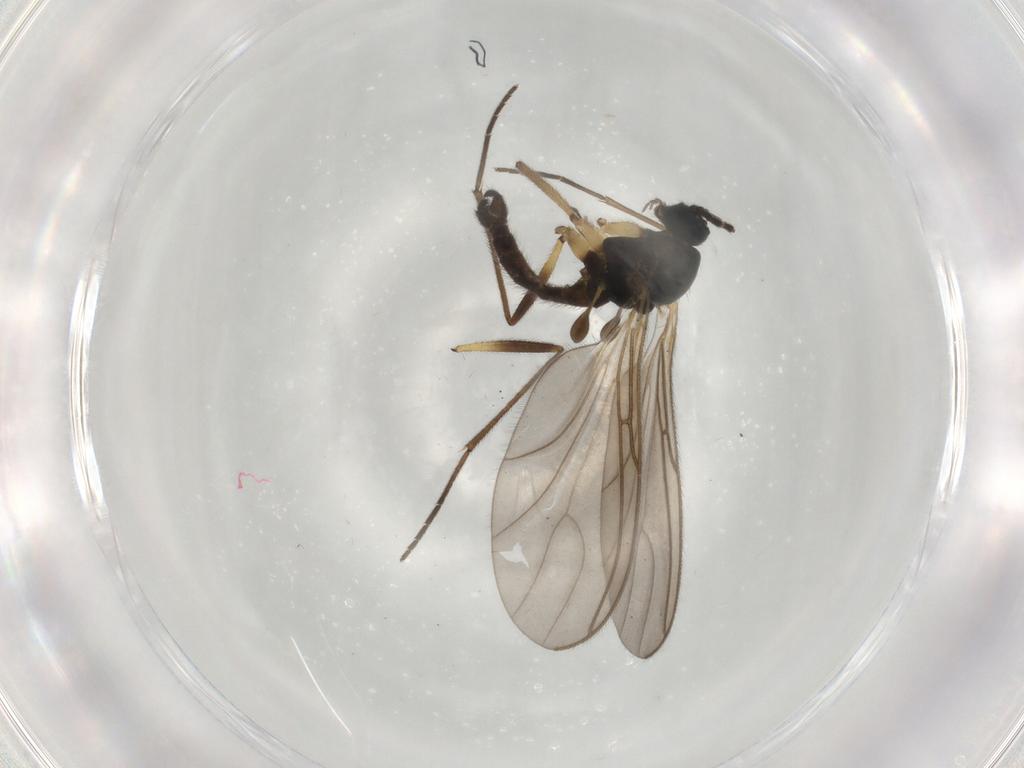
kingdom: Animalia
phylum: Arthropoda
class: Insecta
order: Diptera
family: Sciaridae
